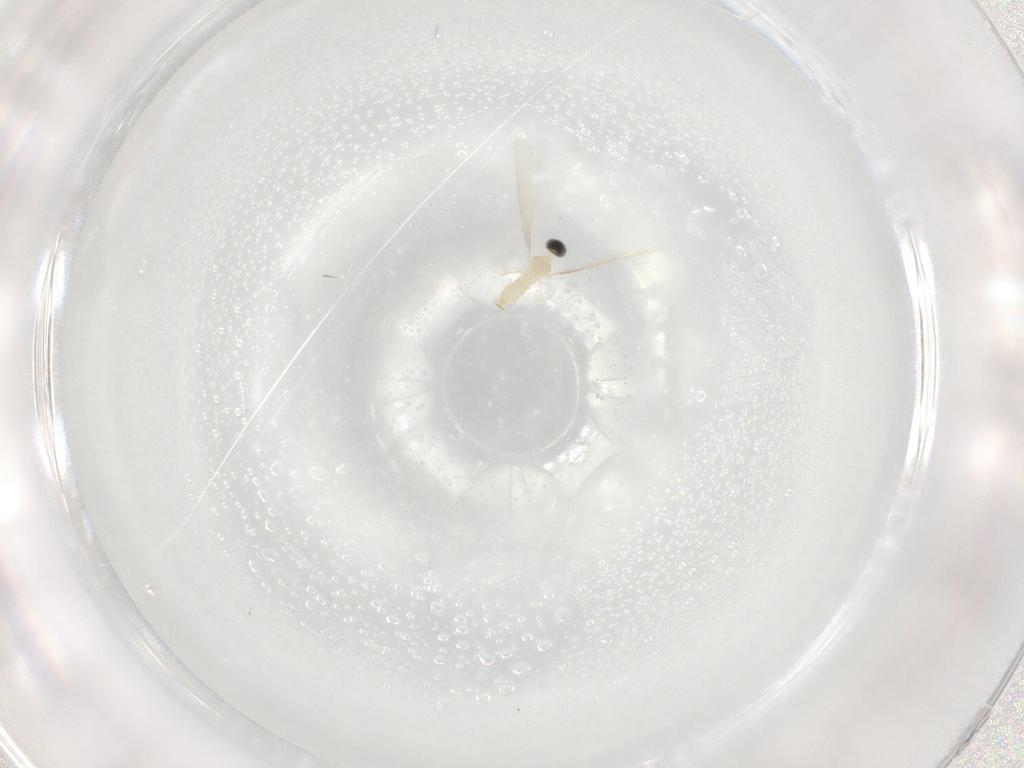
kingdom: Animalia
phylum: Arthropoda
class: Insecta
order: Diptera
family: Cecidomyiidae
